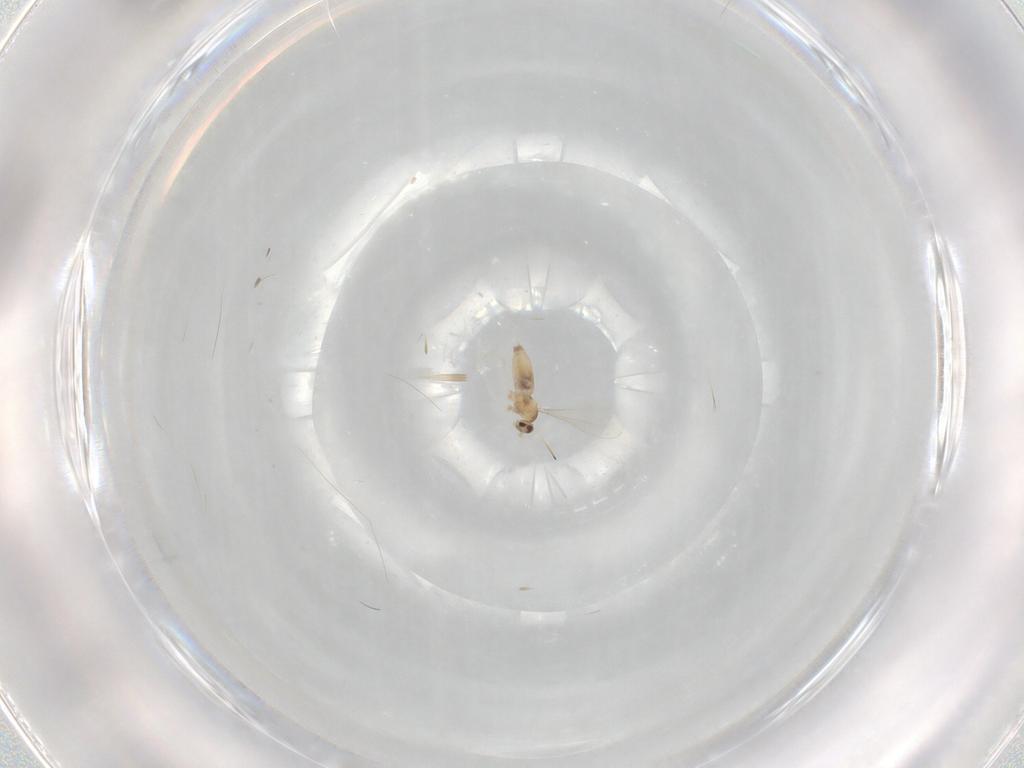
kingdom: Animalia
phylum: Arthropoda
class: Insecta
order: Diptera
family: Cecidomyiidae
